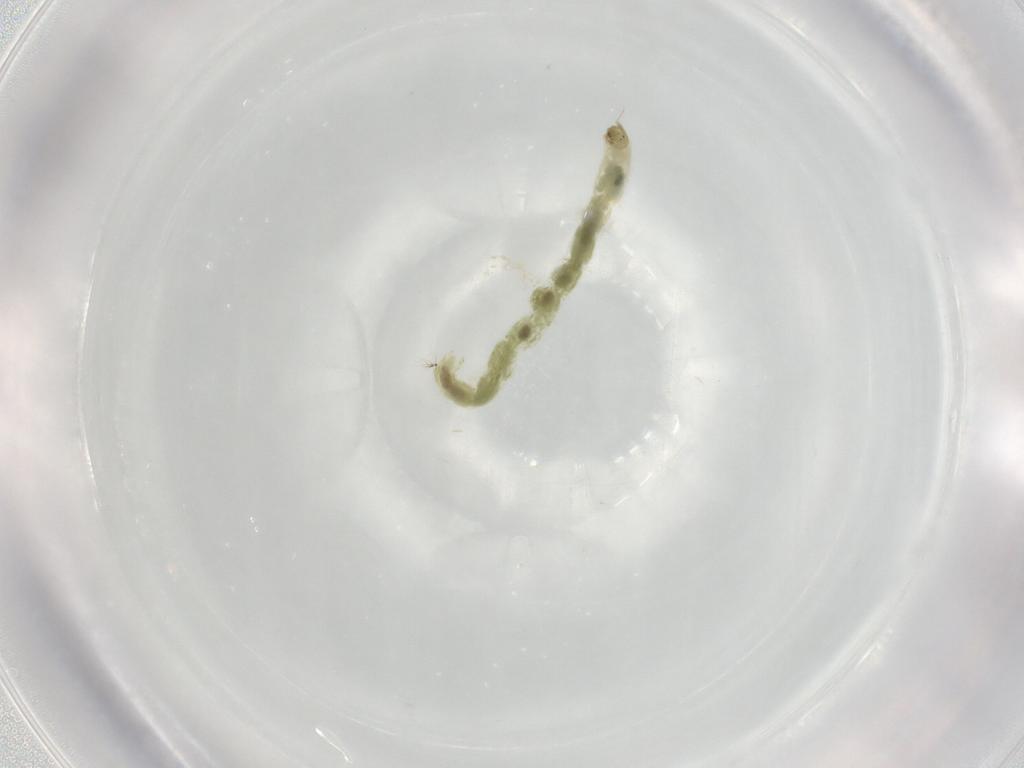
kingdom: Animalia
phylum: Arthropoda
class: Insecta
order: Diptera
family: Chironomidae
